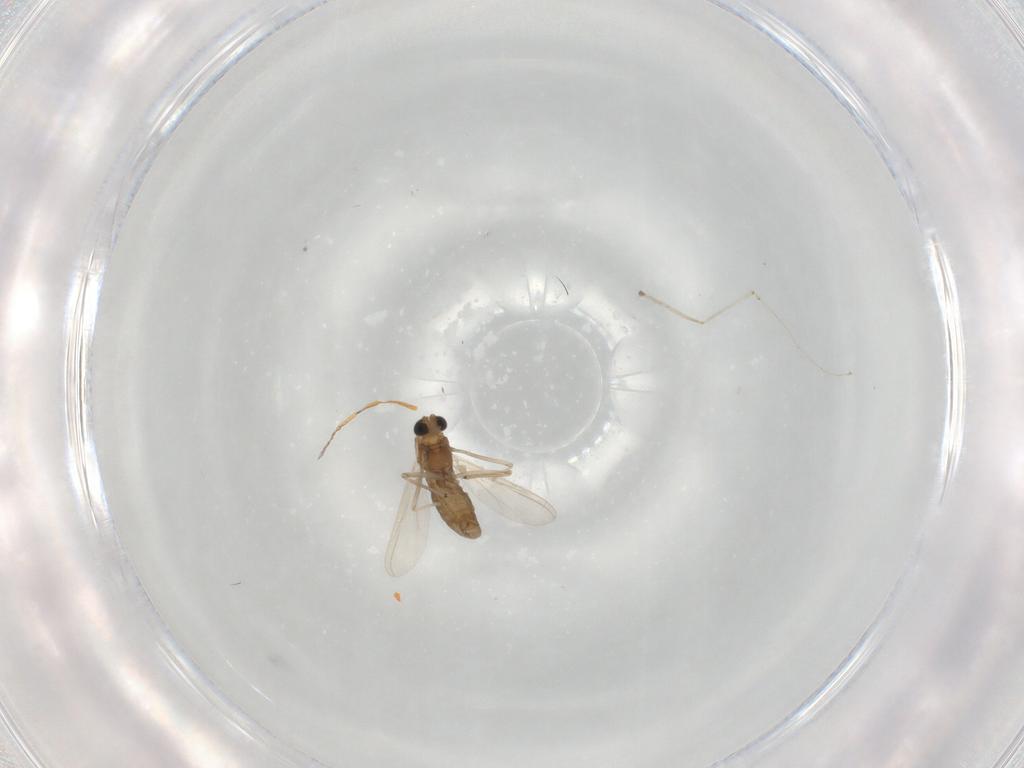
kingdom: Animalia
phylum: Arthropoda
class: Insecta
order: Diptera
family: Chironomidae
